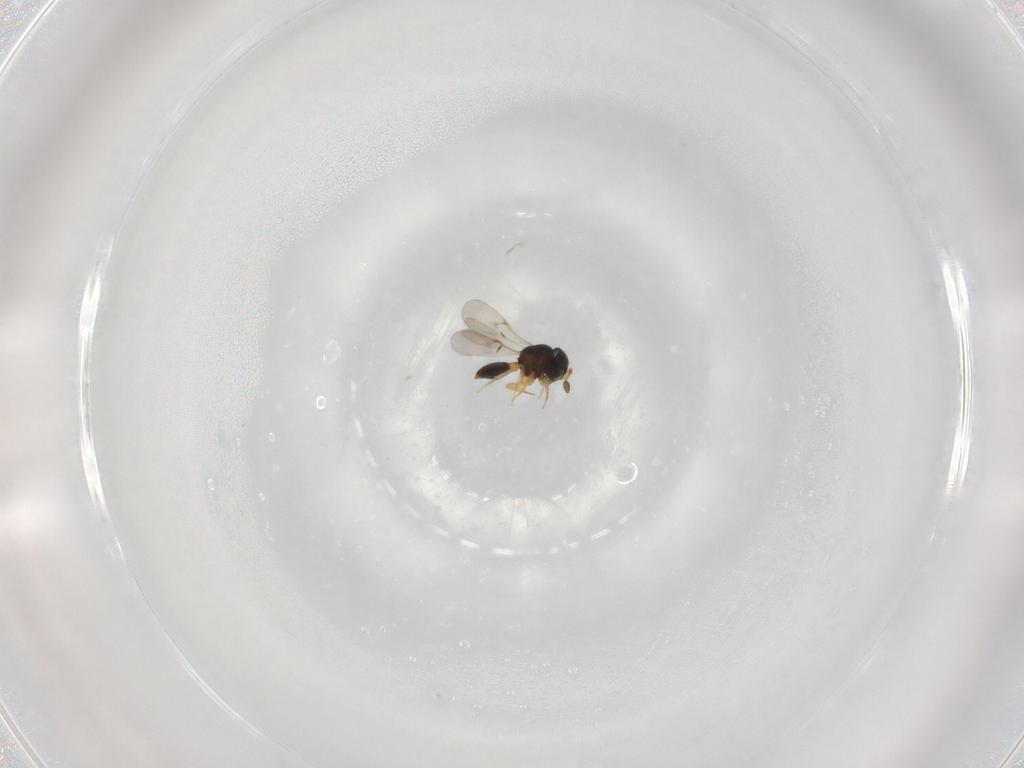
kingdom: Animalia
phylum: Arthropoda
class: Insecta
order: Hymenoptera
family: Scelionidae
